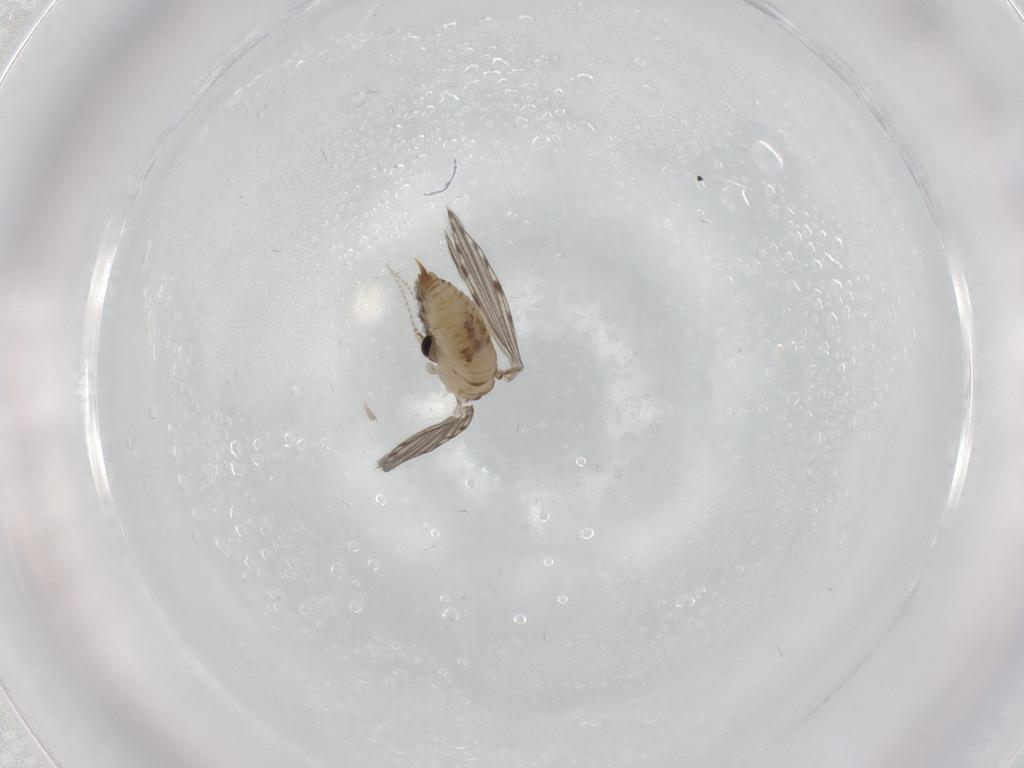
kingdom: Animalia
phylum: Arthropoda
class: Insecta
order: Diptera
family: Psychodidae
